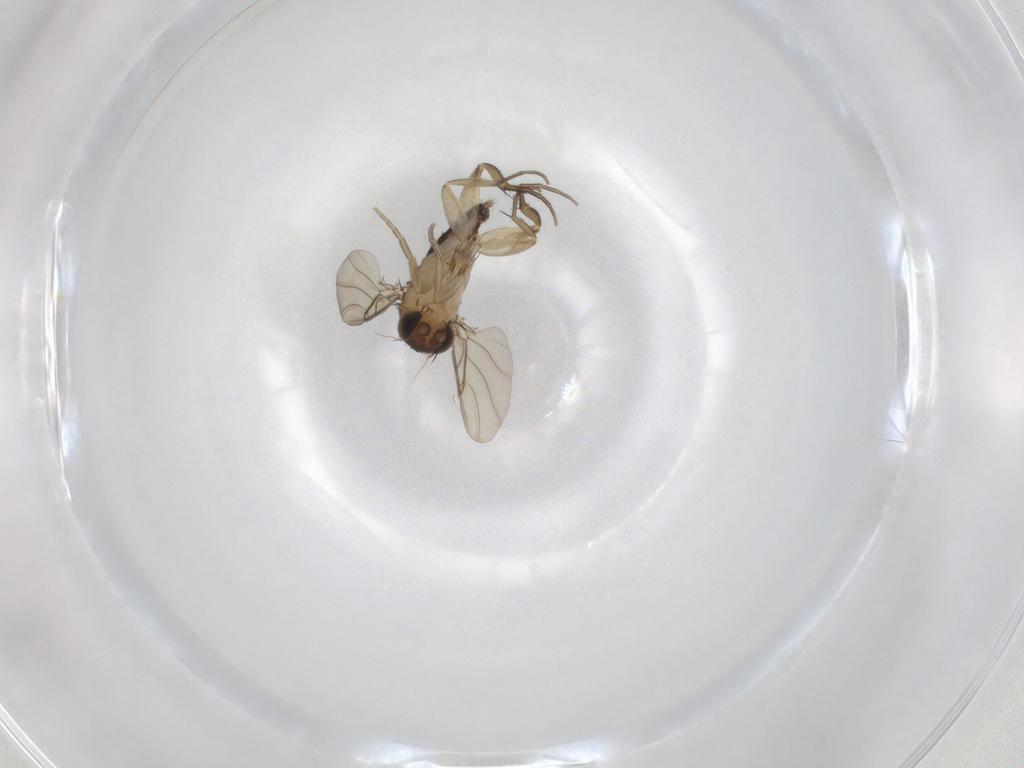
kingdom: Animalia
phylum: Arthropoda
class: Insecta
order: Diptera
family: Phoridae
